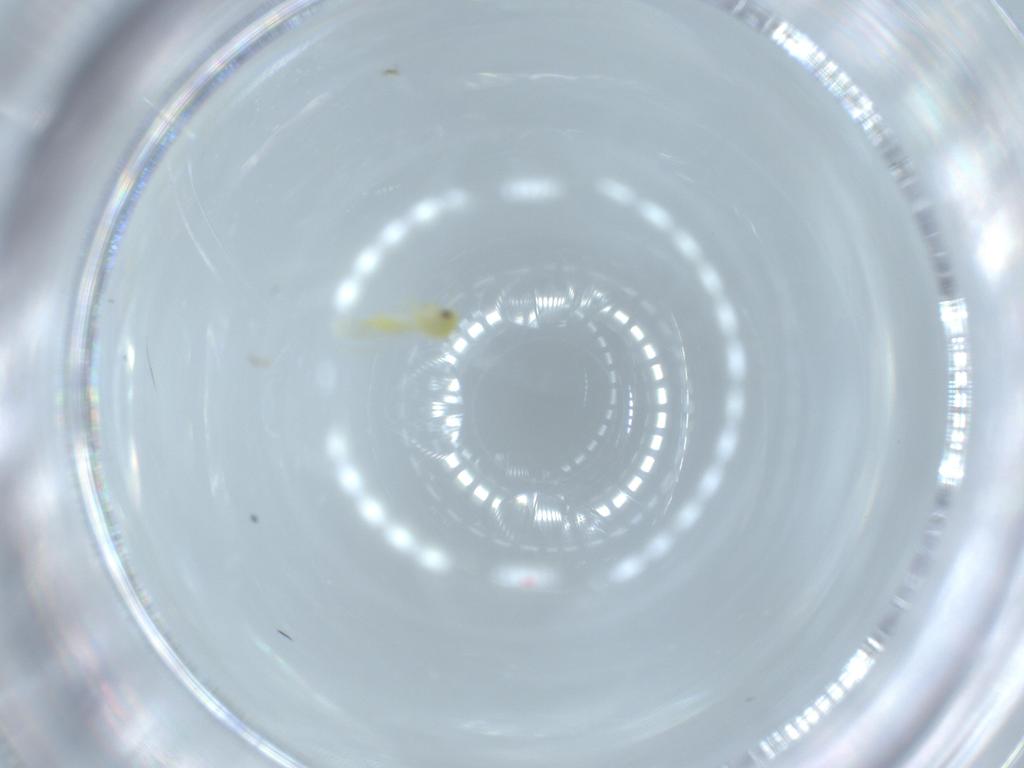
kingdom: Animalia
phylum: Arthropoda
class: Insecta
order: Hemiptera
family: Aleyrodidae
